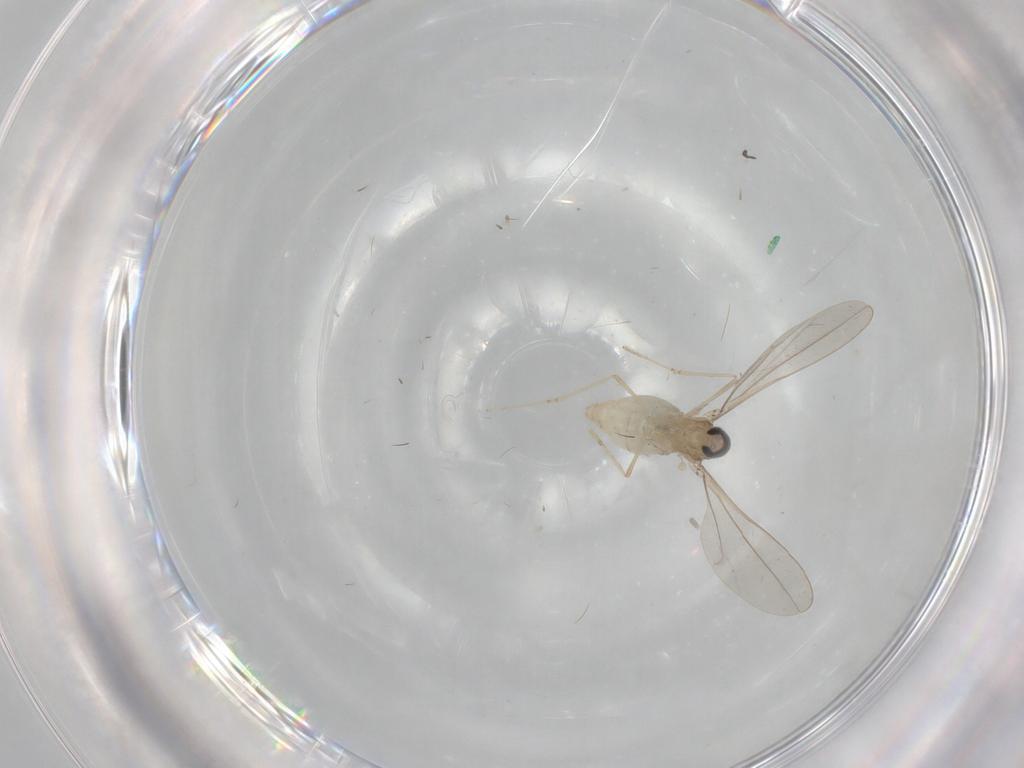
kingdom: Animalia
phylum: Arthropoda
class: Insecta
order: Diptera
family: Cecidomyiidae
